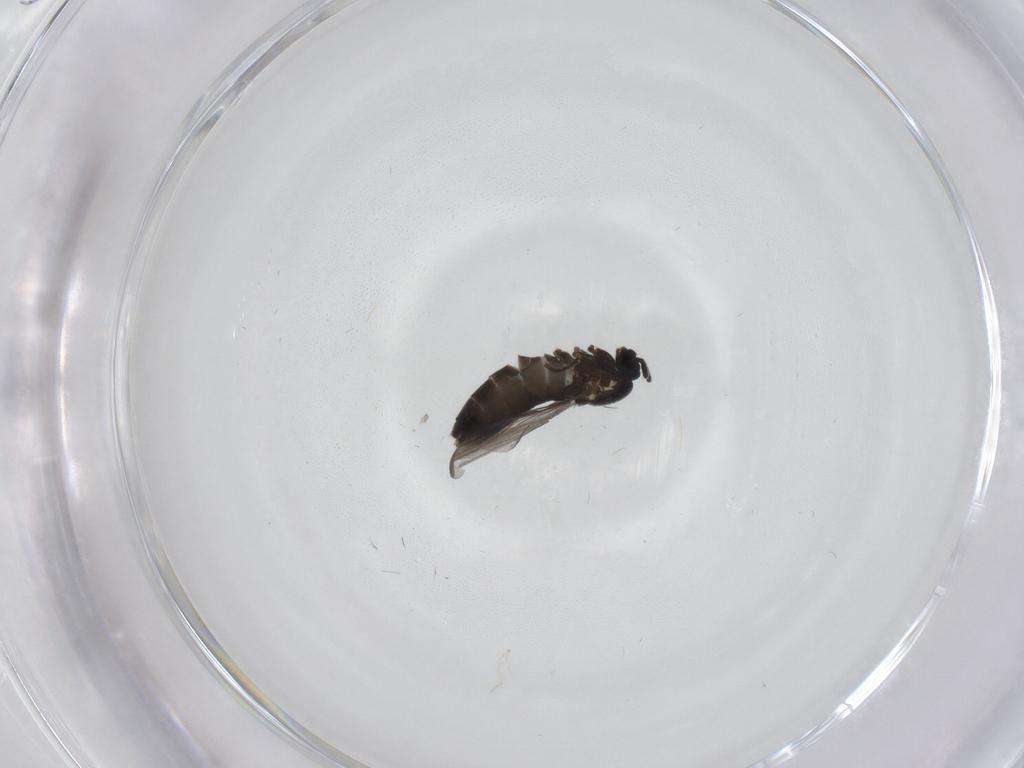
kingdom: Animalia
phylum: Arthropoda
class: Insecta
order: Diptera
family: Scatopsidae
